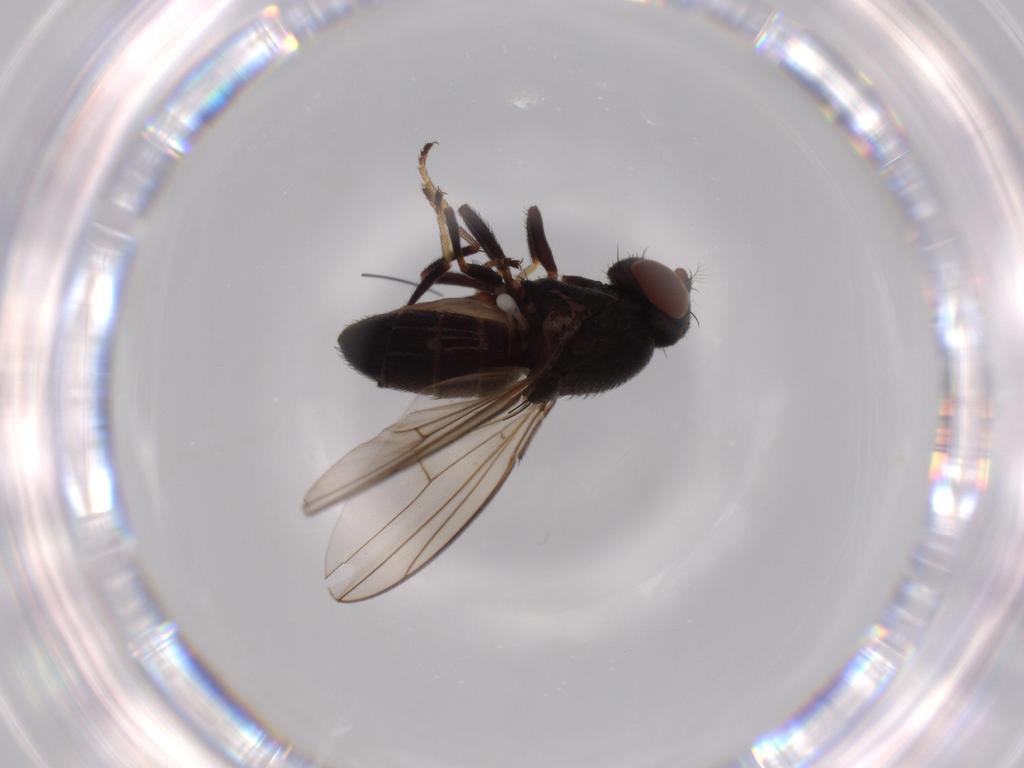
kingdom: Animalia
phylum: Arthropoda
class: Insecta
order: Diptera
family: Ephydridae
